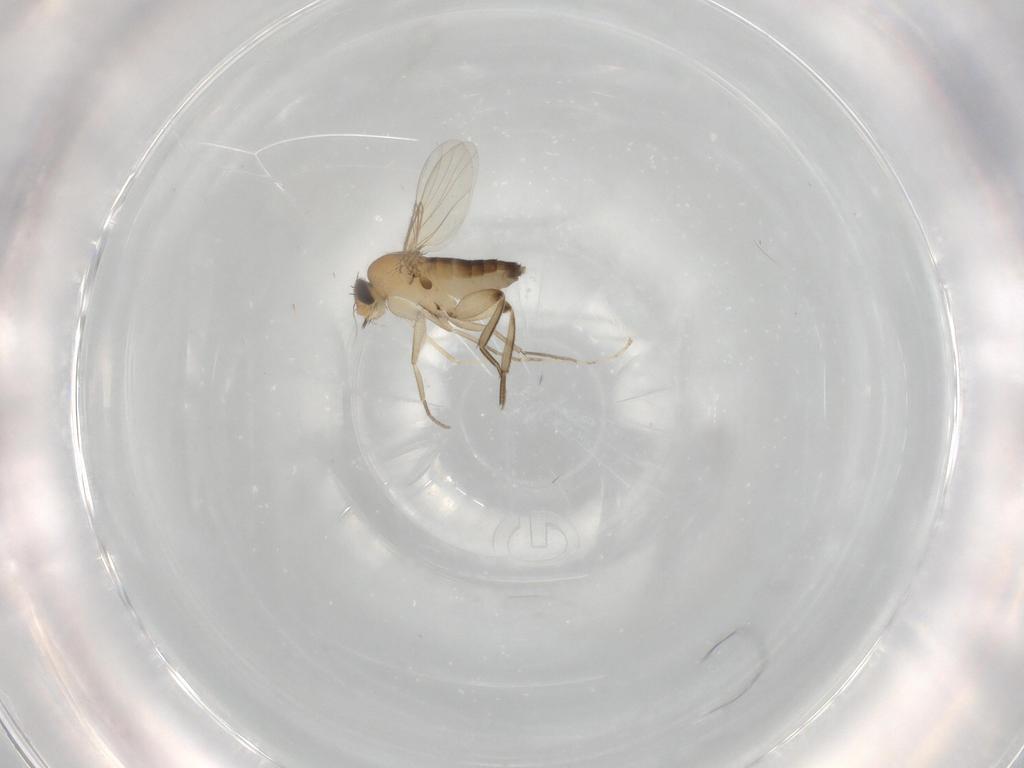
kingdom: Animalia
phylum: Arthropoda
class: Insecta
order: Diptera
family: Phoridae
